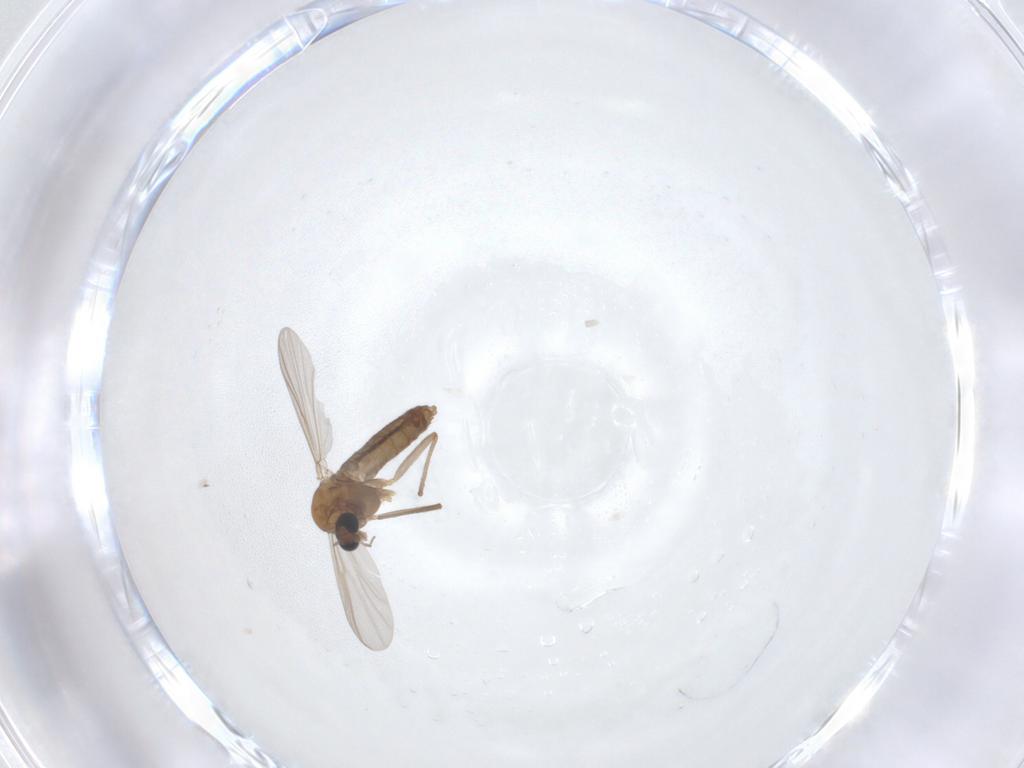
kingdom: Animalia
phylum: Arthropoda
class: Insecta
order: Diptera
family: Chironomidae
